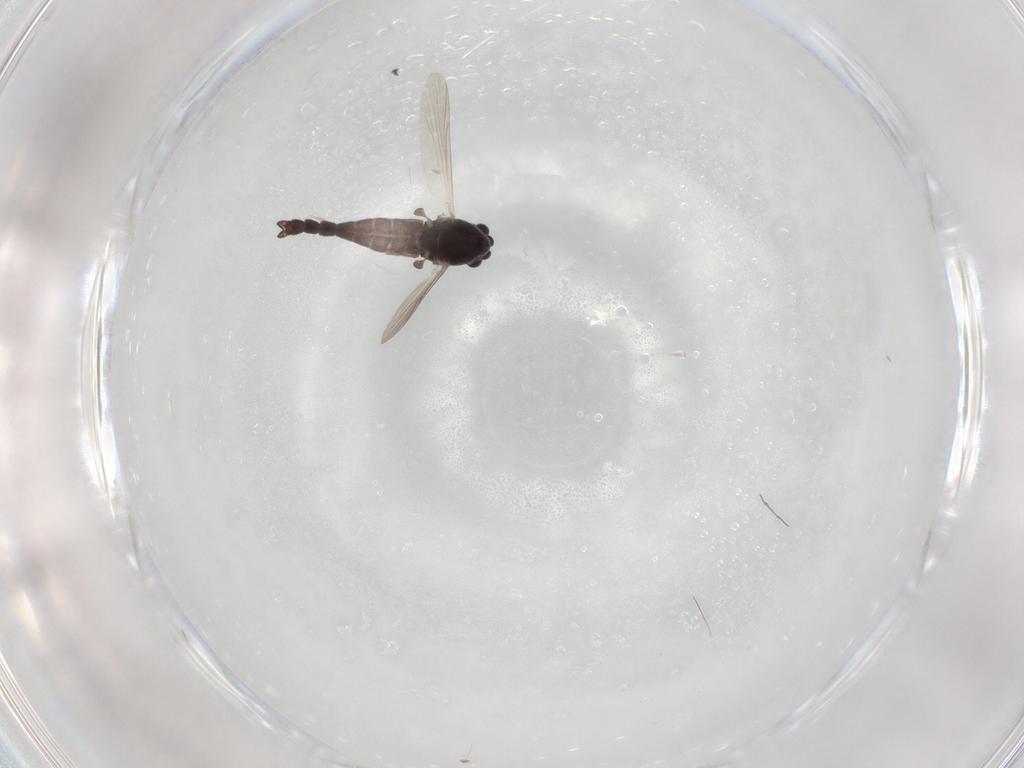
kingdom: Animalia
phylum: Arthropoda
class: Insecta
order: Diptera
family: Chironomidae
